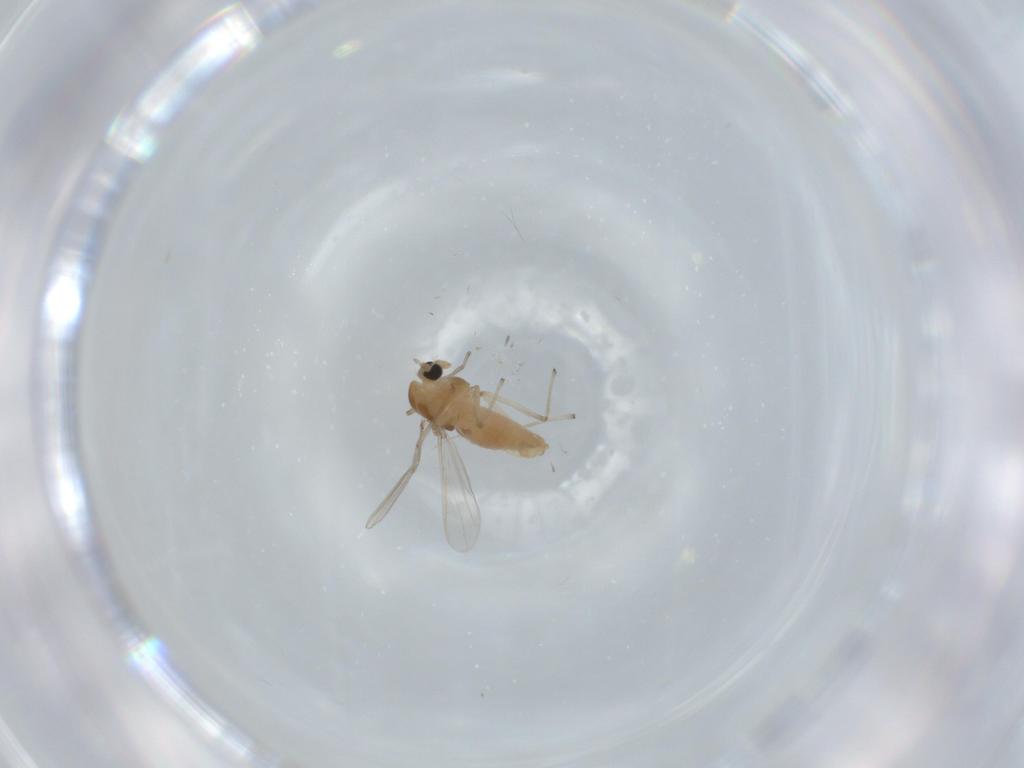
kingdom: Animalia
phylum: Arthropoda
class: Insecta
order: Diptera
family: Chironomidae
